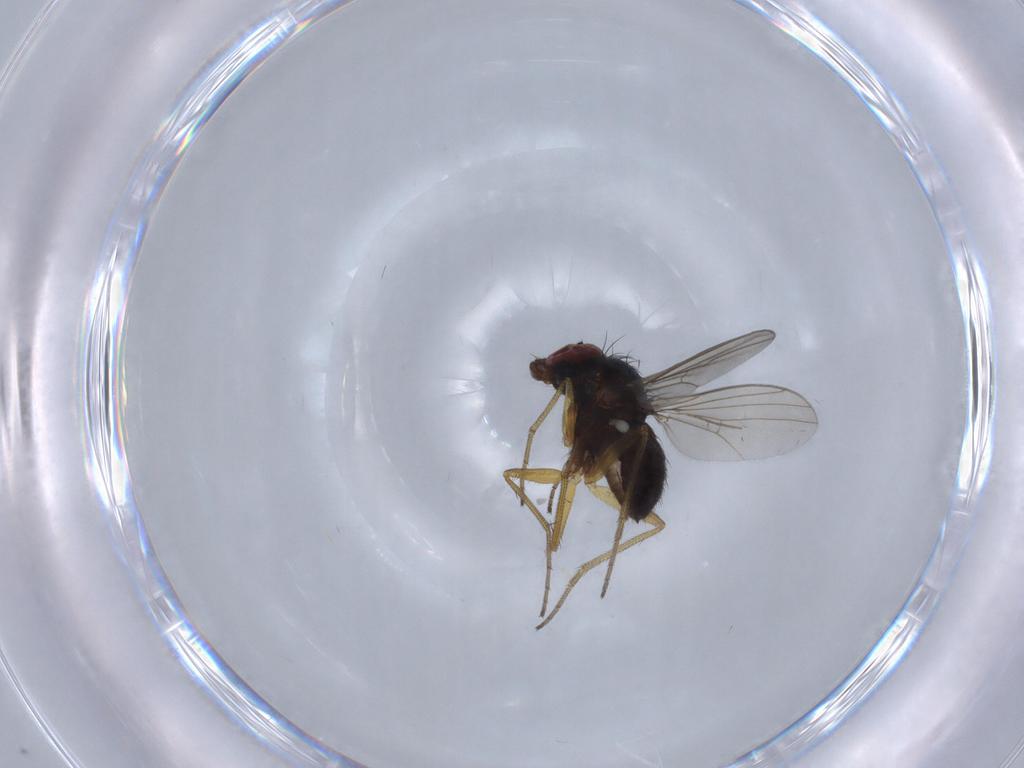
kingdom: Animalia
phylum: Arthropoda
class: Insecta
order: Diptera
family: Dolichopodidae
